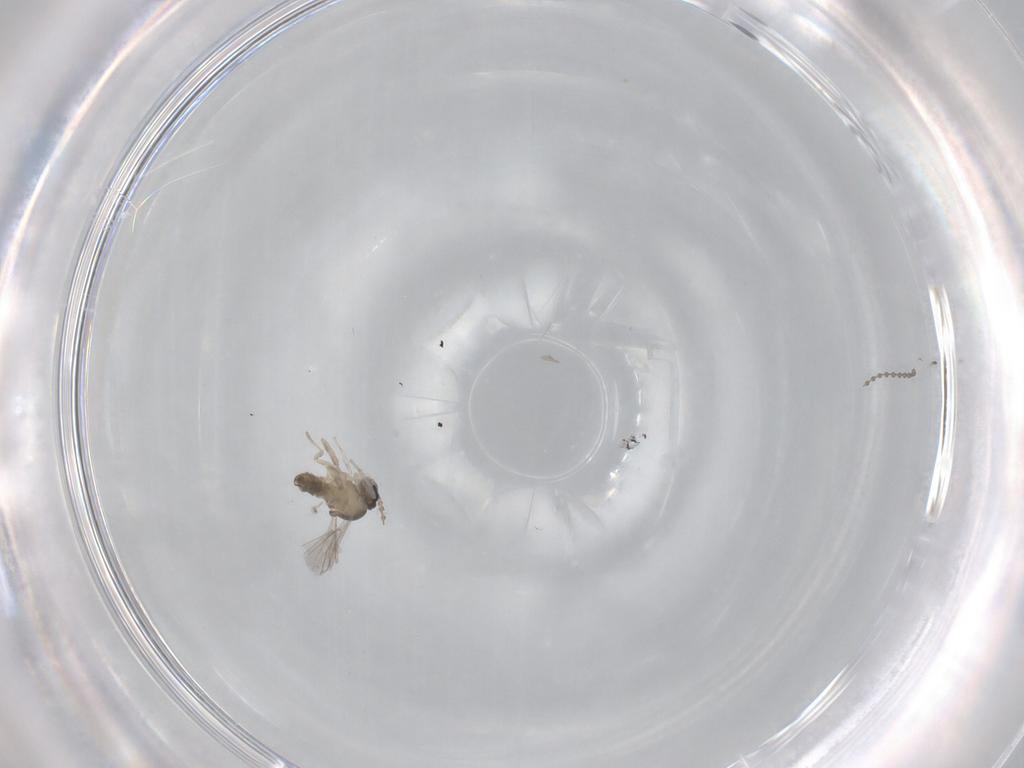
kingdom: Animalia
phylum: Arthropoda
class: Insecta
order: Diptera
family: Cecidomyiidae
